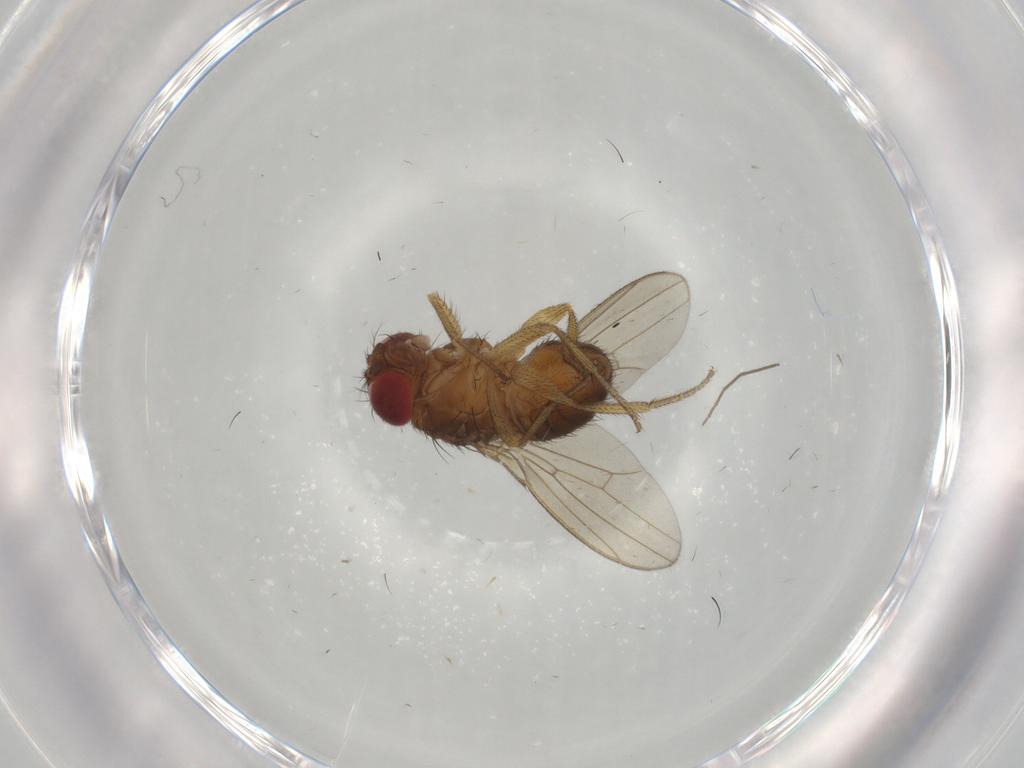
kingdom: Animalia
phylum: Arthropoda
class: Insecta
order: Diptera
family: Drosophilidae
